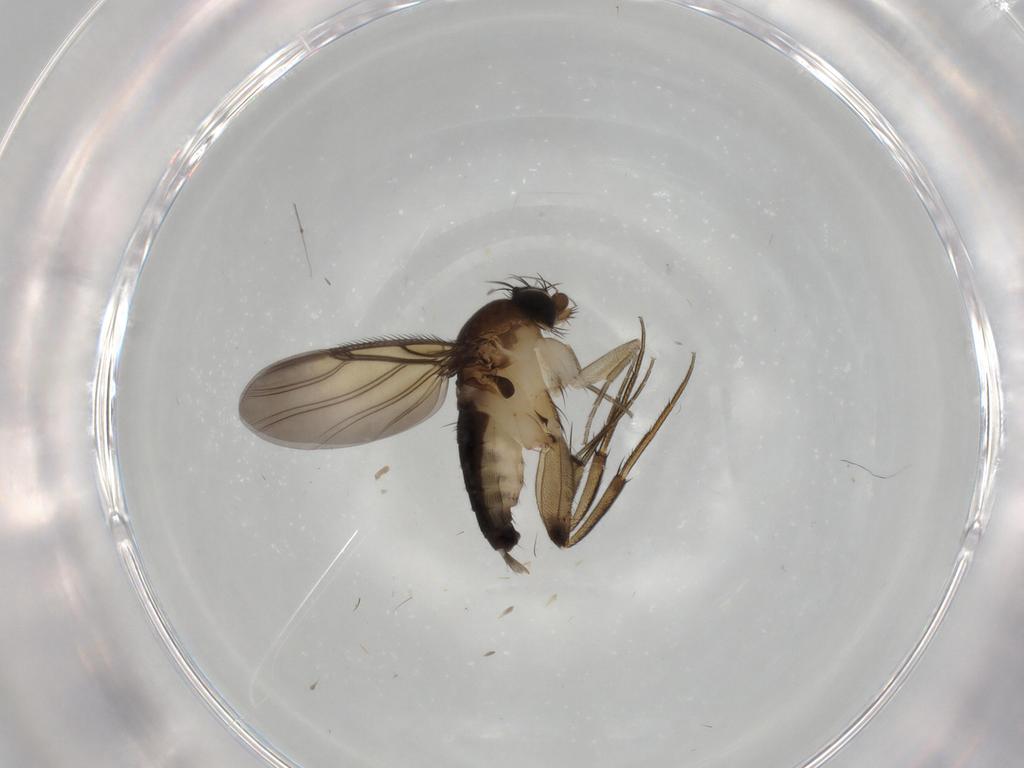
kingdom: Animalia
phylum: Arthropoda
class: Insecta
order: Diptera
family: Sciaridae
